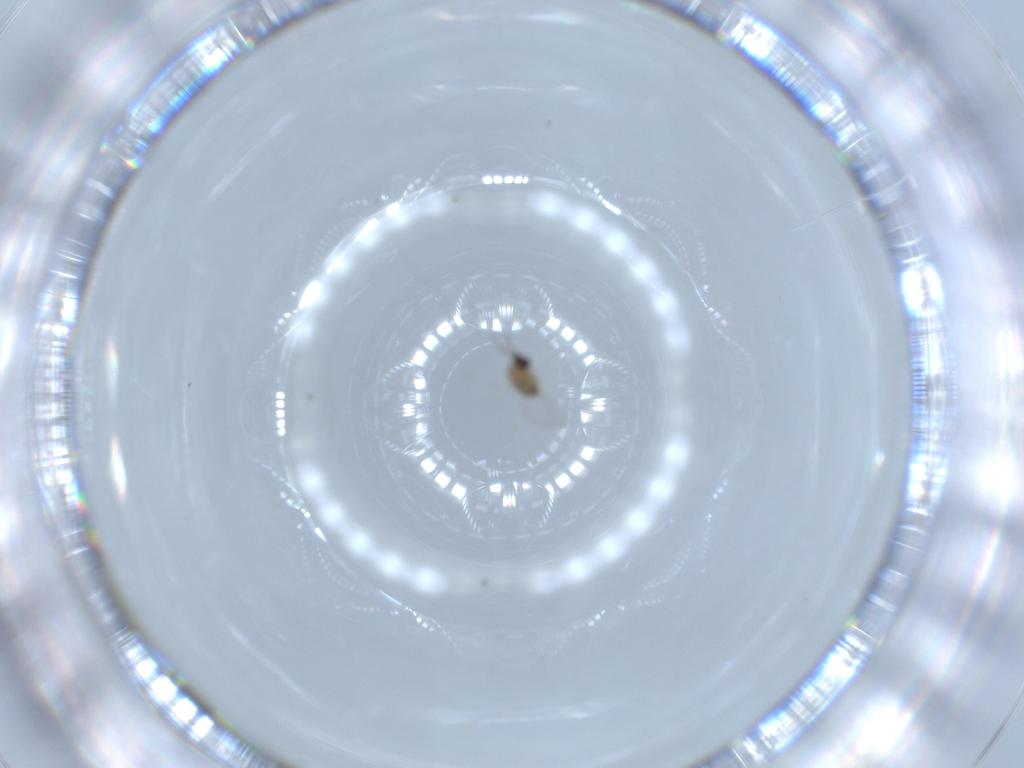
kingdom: Animalia
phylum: Arthropoda
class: Insecta
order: Diptera
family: Cecidomyiidae
